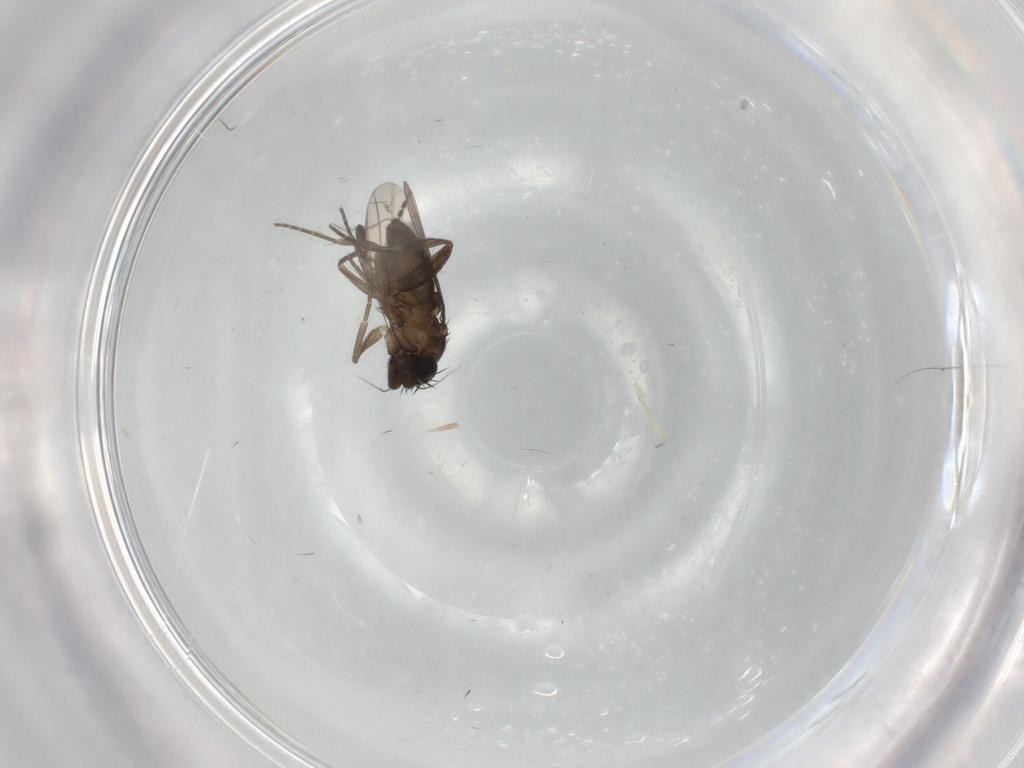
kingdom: Animalia
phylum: Arthropoda
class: Insecta
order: Diptera
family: Phoridae
